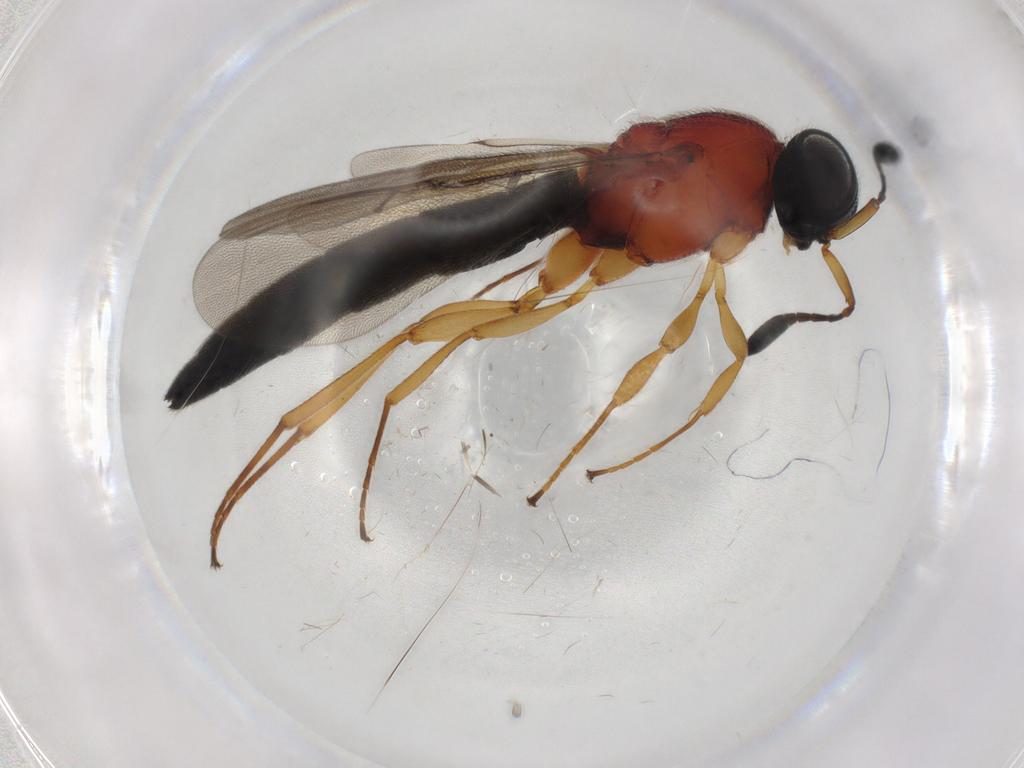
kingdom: Animalia
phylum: Arthropoda
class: Insecta
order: Hymenoptera
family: Scelionidae
